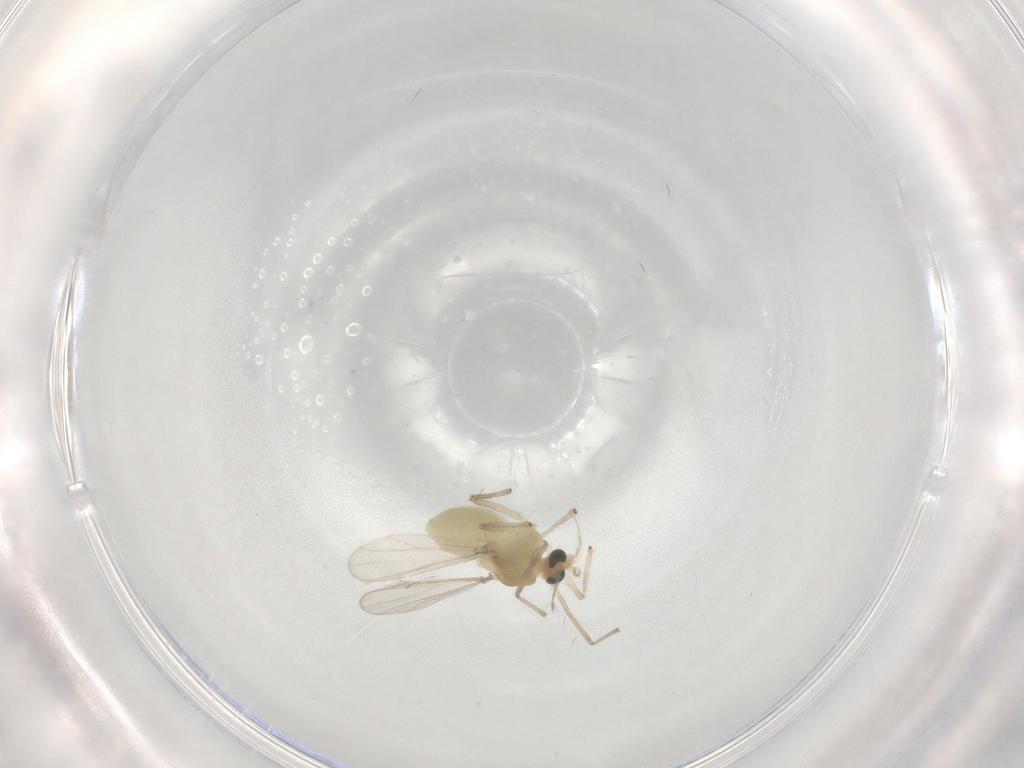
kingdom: Animalia
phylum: Arthropoda
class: Insecta
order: Diptera
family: Chironomidae
